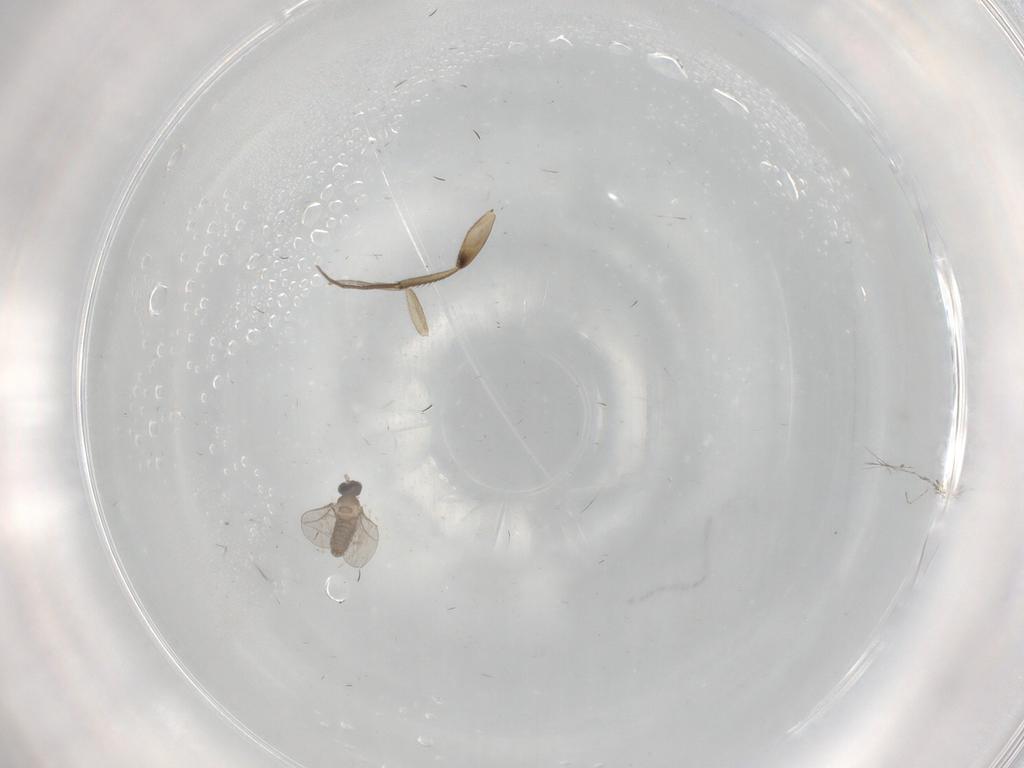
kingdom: Animalia
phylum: Arthropoda
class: Insecta
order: Diptera
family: Cecidomyiidae
